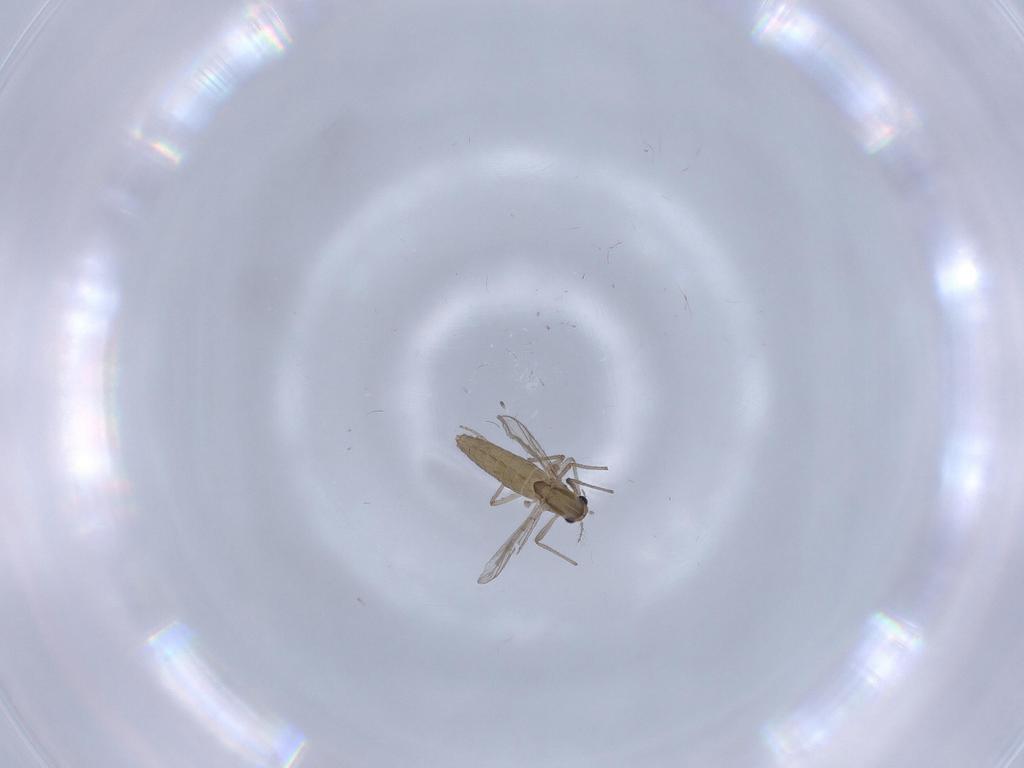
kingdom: Animalia
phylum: Arthropoda
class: Insecta
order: Diptera
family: Chironomidae
